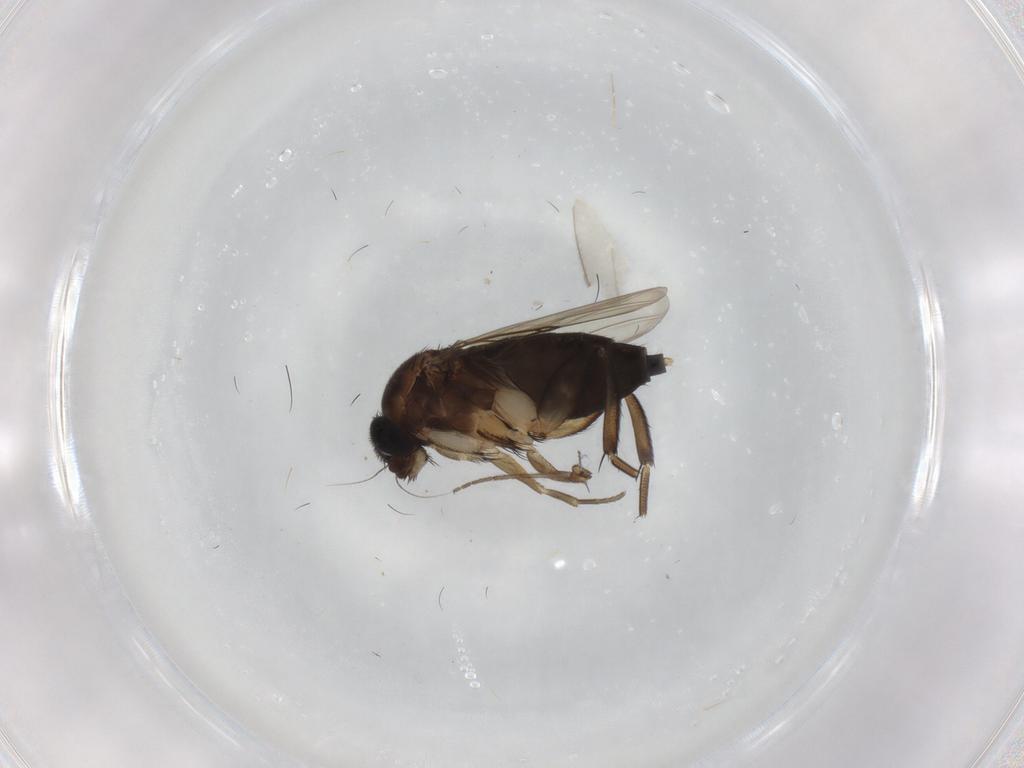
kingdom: Animalia
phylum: Arthropoda
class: Insecta
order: Diptera
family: Phoridae
